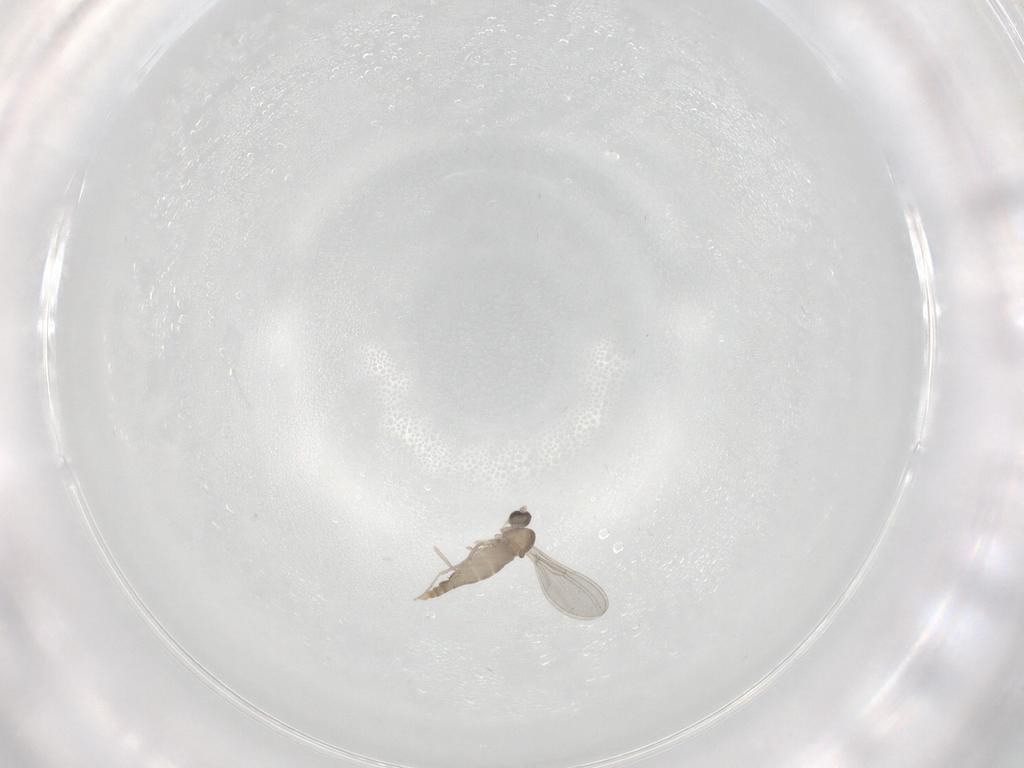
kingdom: Animalia
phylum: Arthropoda
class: Insecta
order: Diptera
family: Cecidomyiidae
